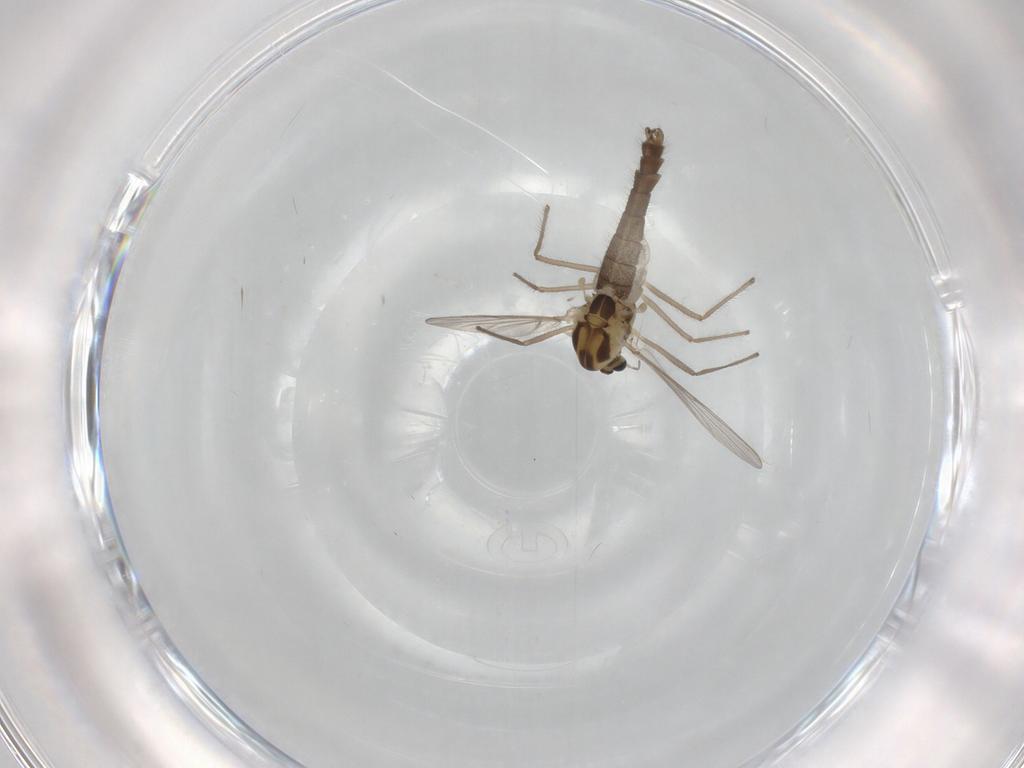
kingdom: Animalia
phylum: Arthropoda
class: Insecta
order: Diptera
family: Chironomidae
